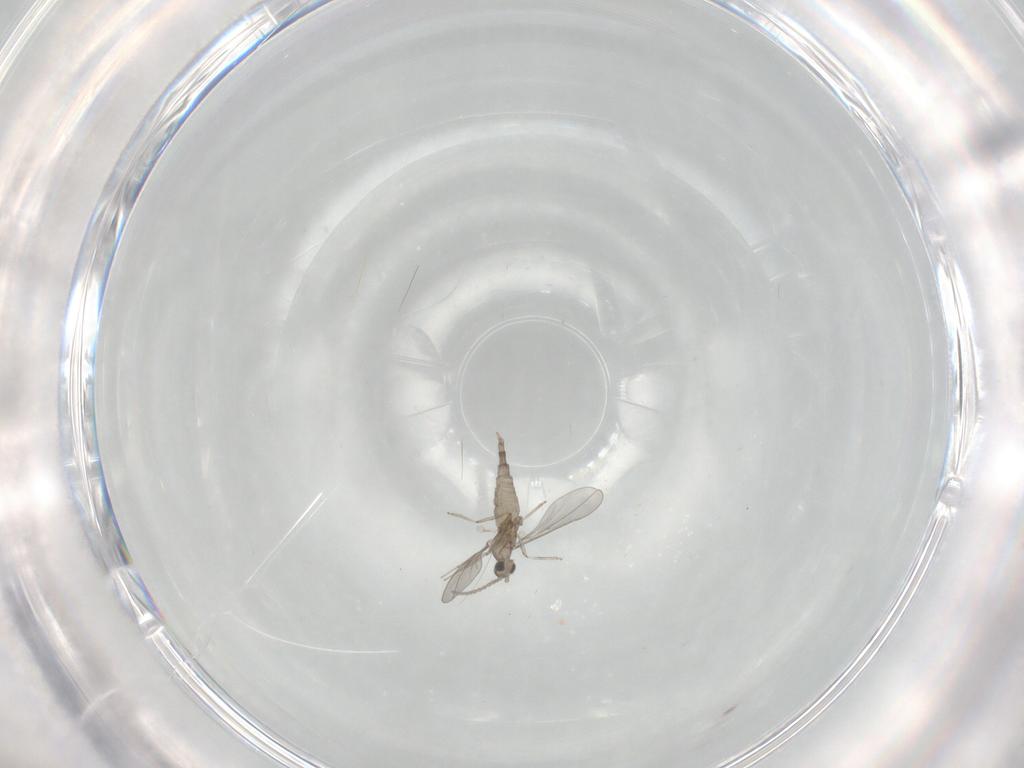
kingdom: Animalia
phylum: Arthropoda
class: Insecta
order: Diptera
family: Cecidomyiidae
